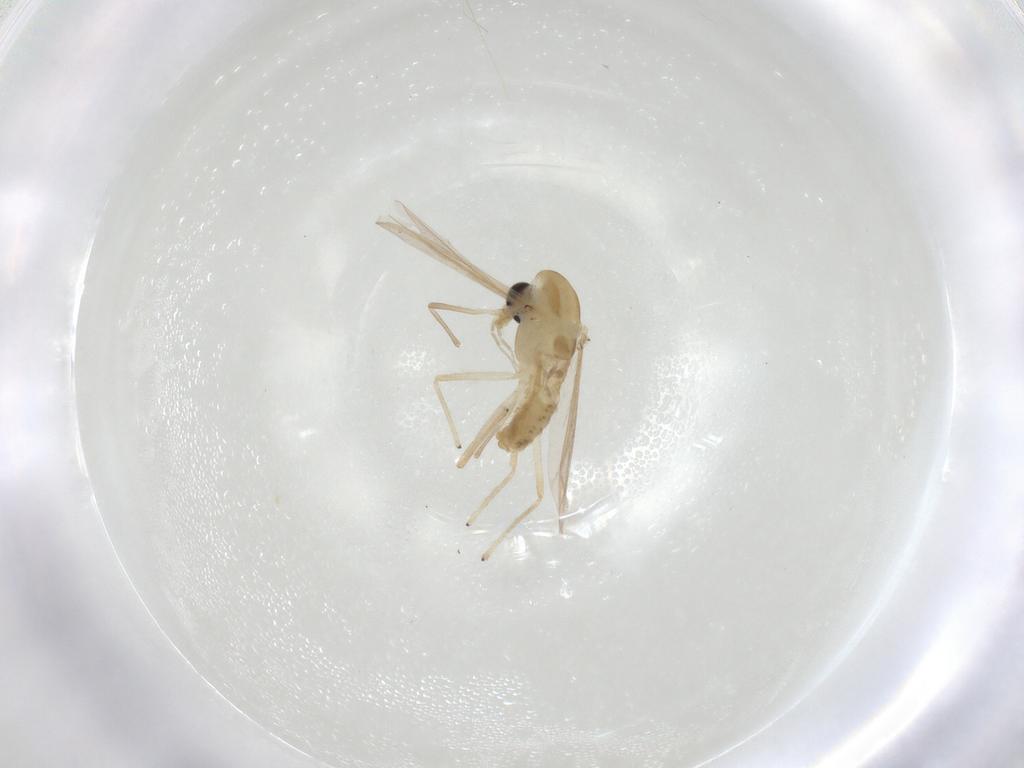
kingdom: Animalia
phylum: Arthropoda
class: Insecta
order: Diptera
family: Chironomidae
